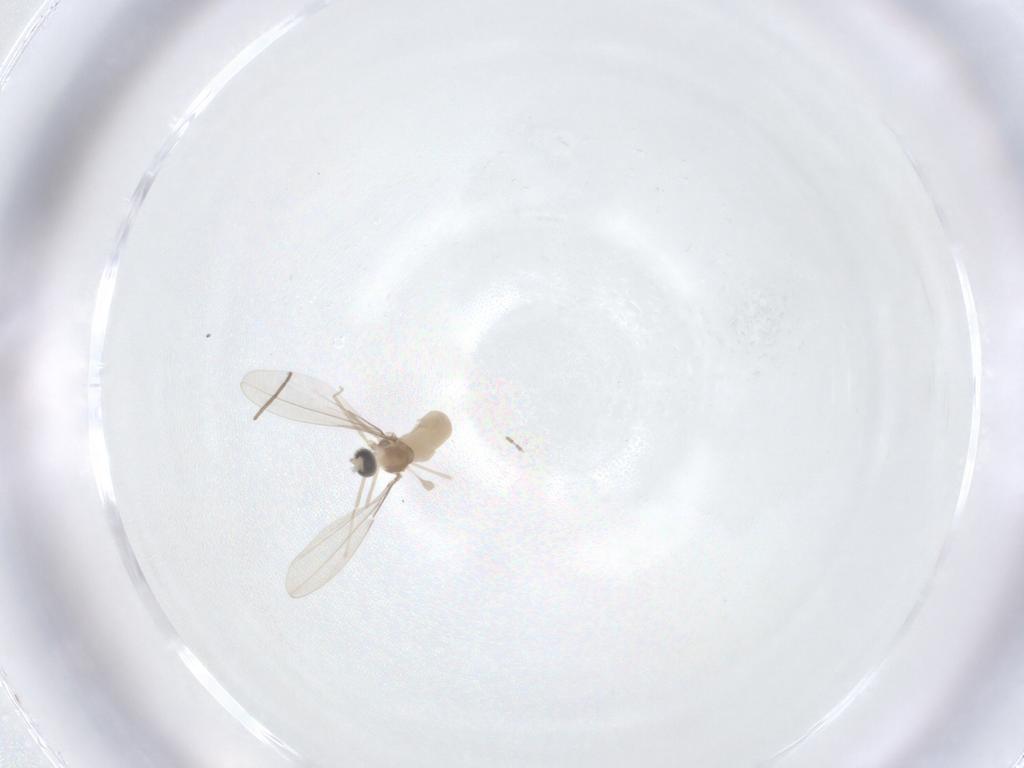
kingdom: Animalia
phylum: Arthropoda
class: Insecta
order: Diptera
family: Cecidomyiidae
